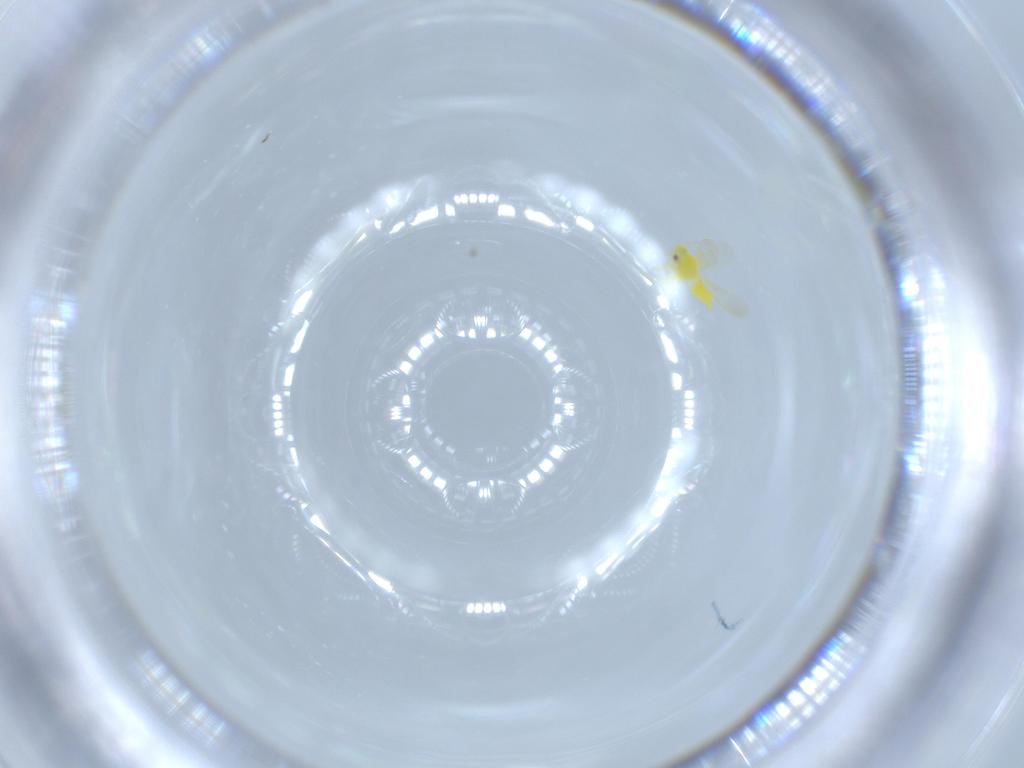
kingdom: Animalia
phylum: Arthropoda
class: Insecta
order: Hemiptera
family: Aleyrodidae
